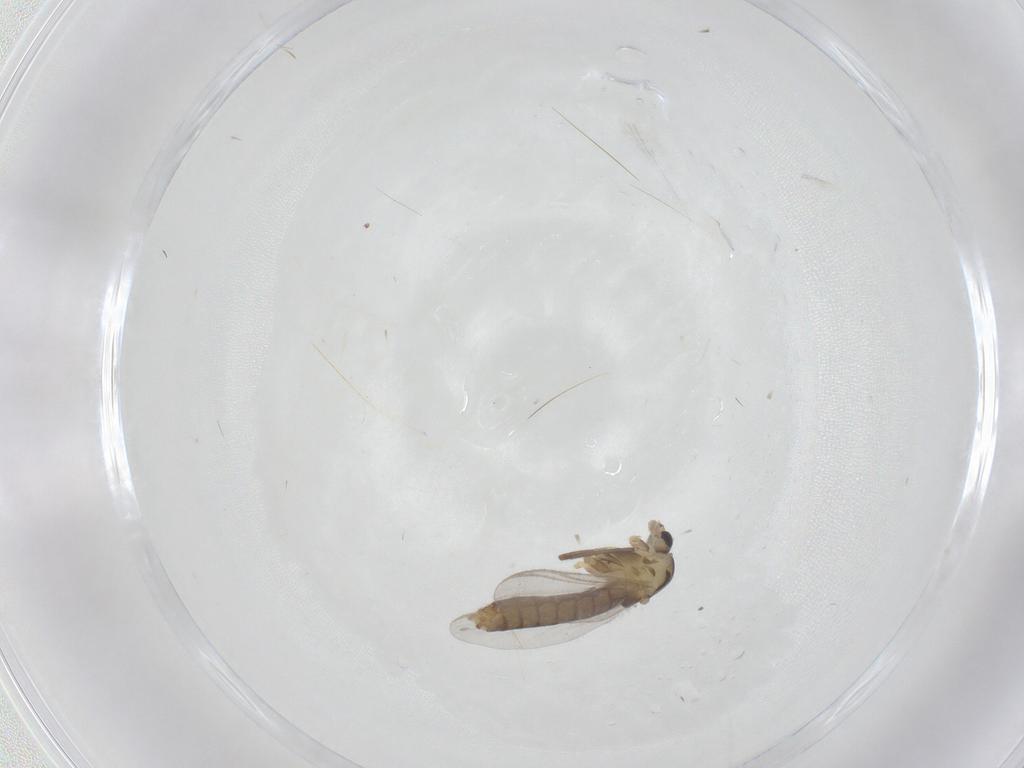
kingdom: Animalia
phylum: Arthropoda
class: Insecta
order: Diptera
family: Chironomidae
